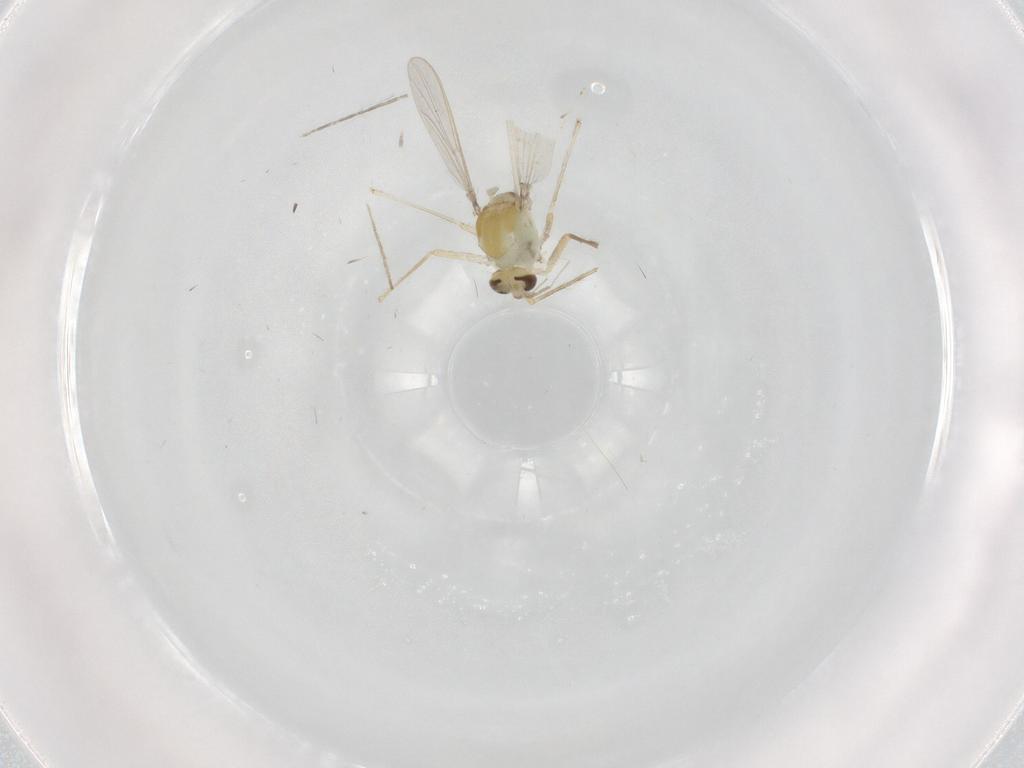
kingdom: Animalia
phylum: Arthropoda
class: Insecta
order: Diptera
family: Chironomidae
